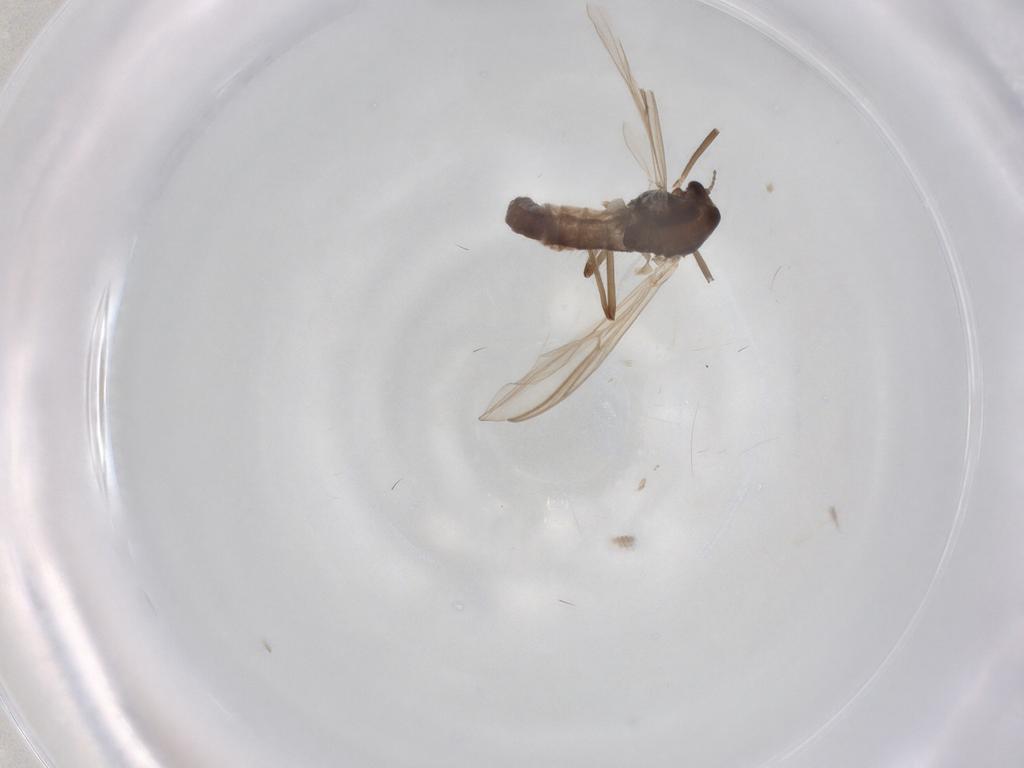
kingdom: Animalia
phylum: Arthropoda
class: Insecta
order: Diptera
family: Chironomidae
